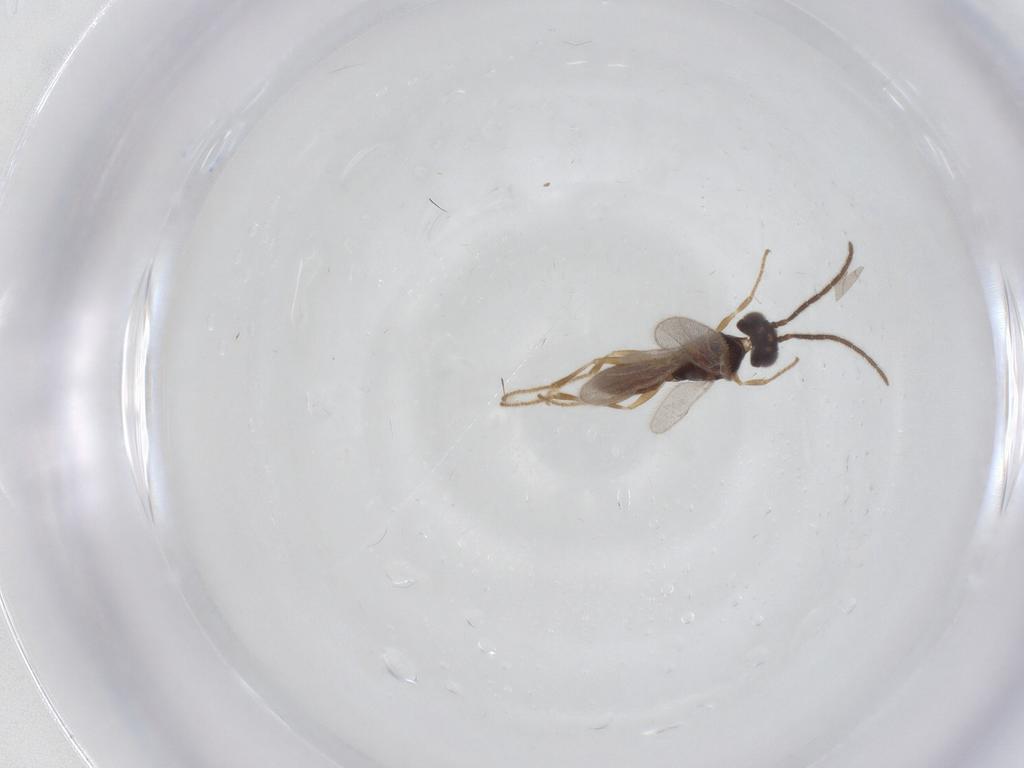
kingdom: Animalia
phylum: Arthropoda
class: Insecta
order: Hymenoptera
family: Dryinidae
